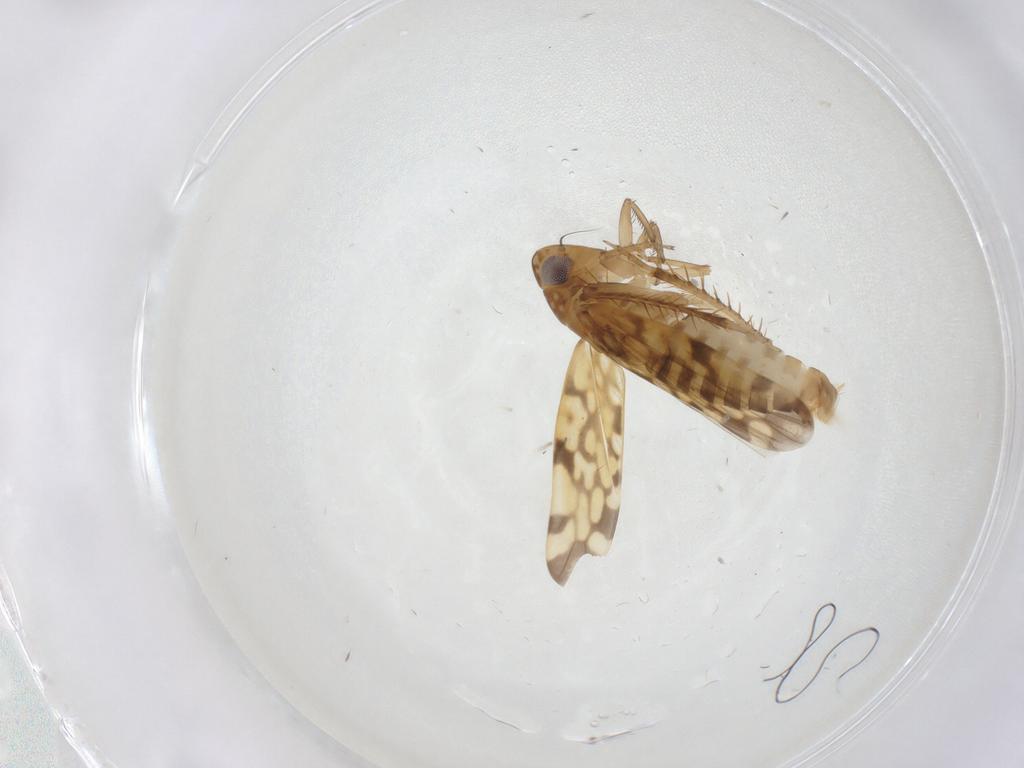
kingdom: Animalia
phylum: Arthropoda
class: Insecta
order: Hemiptera
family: Cicadellidae
